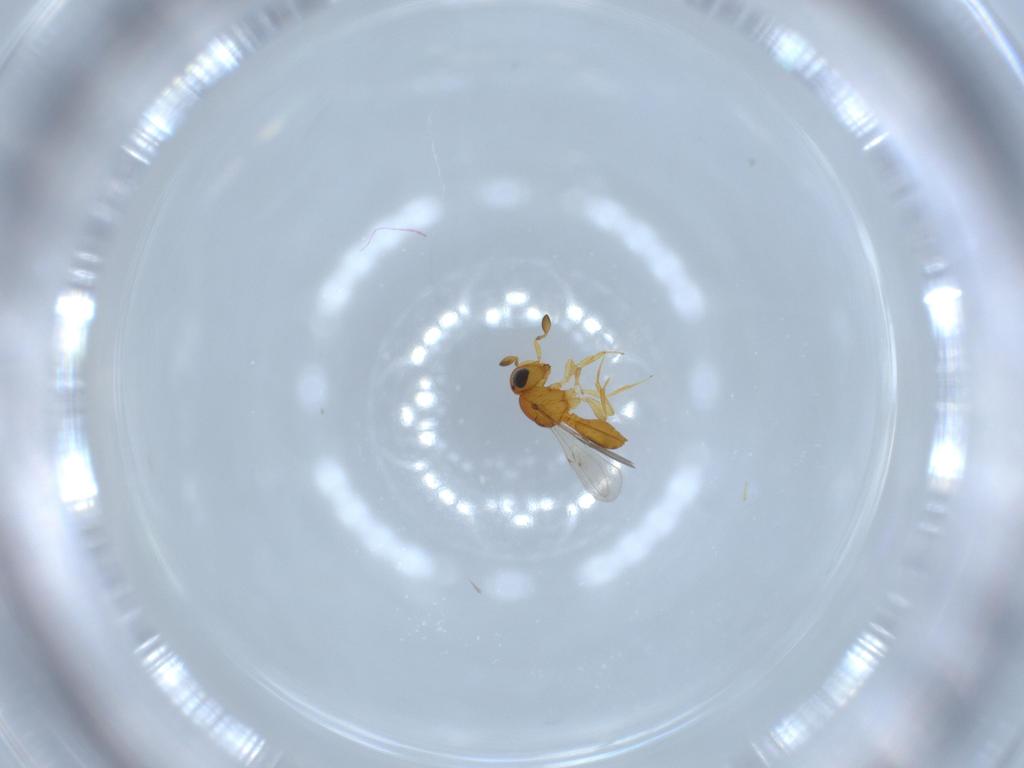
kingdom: Animalia
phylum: Arthropoda
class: Insecta
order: Hymenoptera
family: Scelionidae
